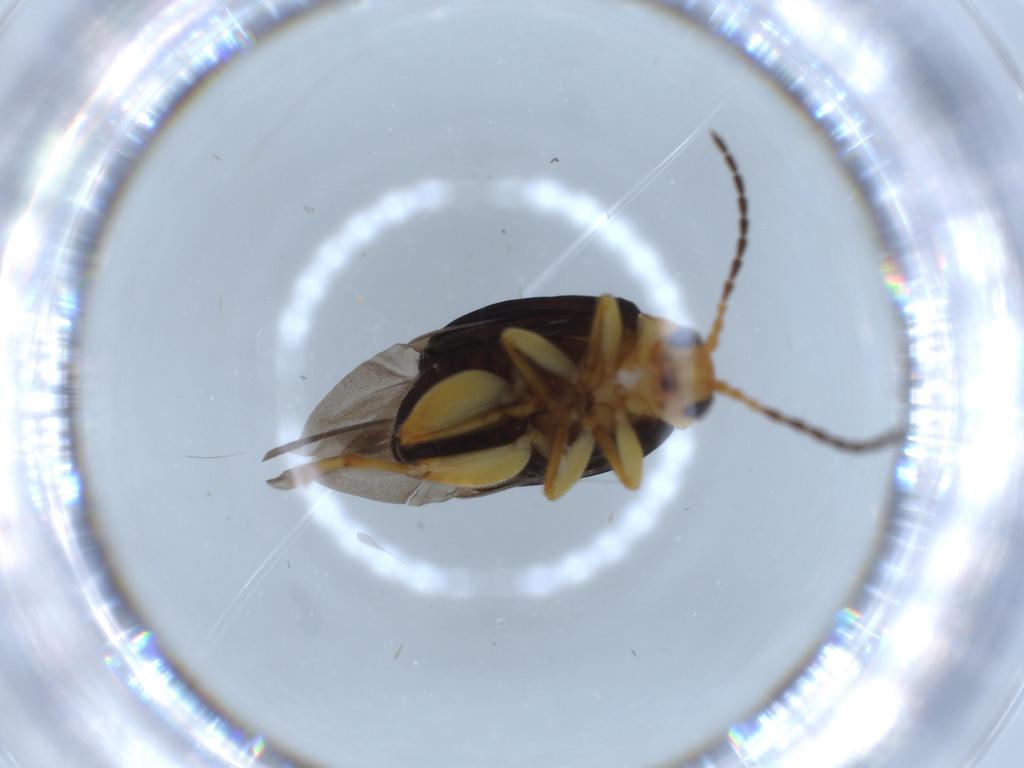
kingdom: Animalia
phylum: Arthropoda
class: Insecta
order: Coleoptera
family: Chrysomelidae
